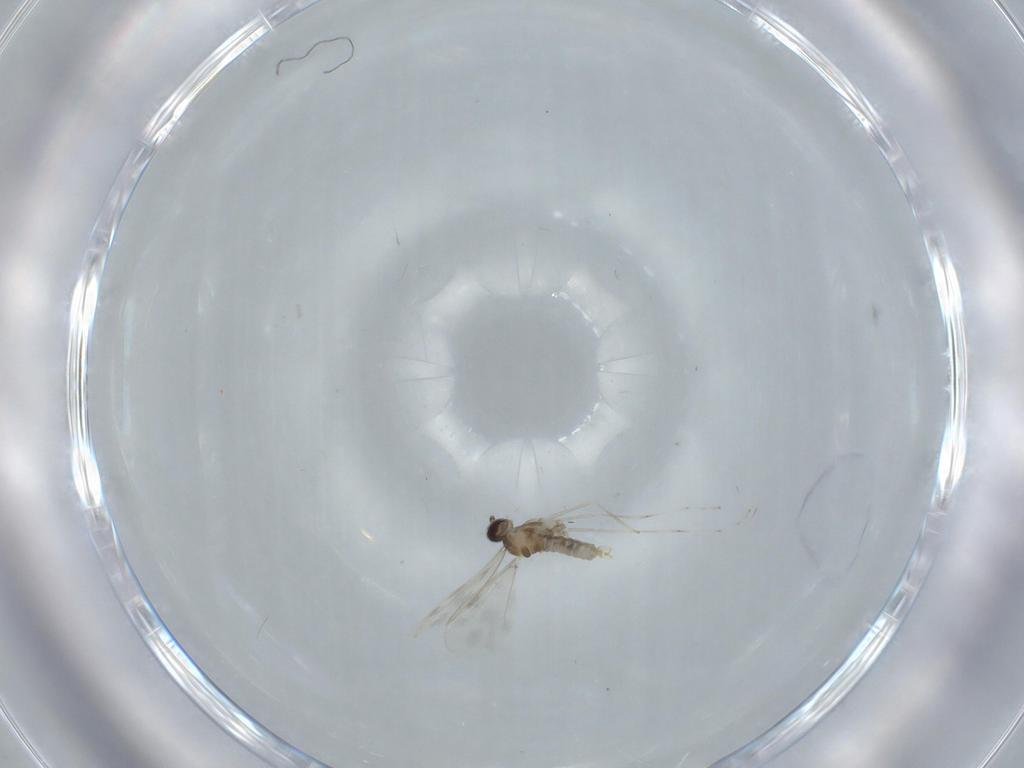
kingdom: Animalia
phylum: Arthropoda
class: Insecta
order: Diptera
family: Cecidomyiidae
